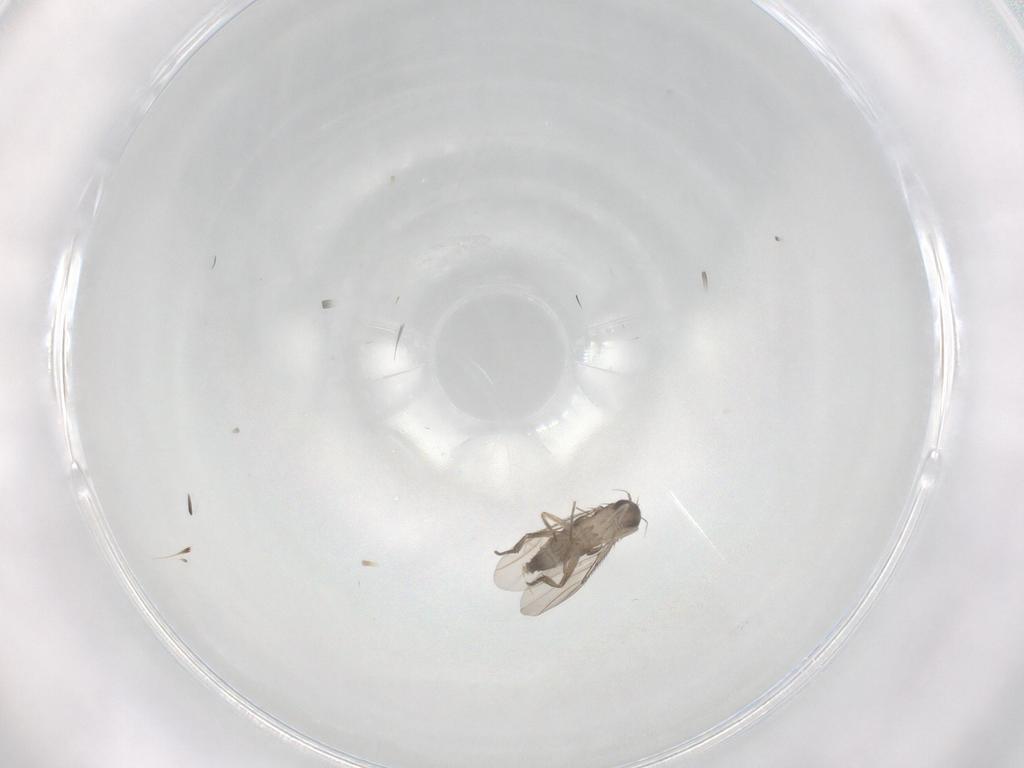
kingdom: Animalia
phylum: Arthropoda
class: Insecta
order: Diptera
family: Phoridae
